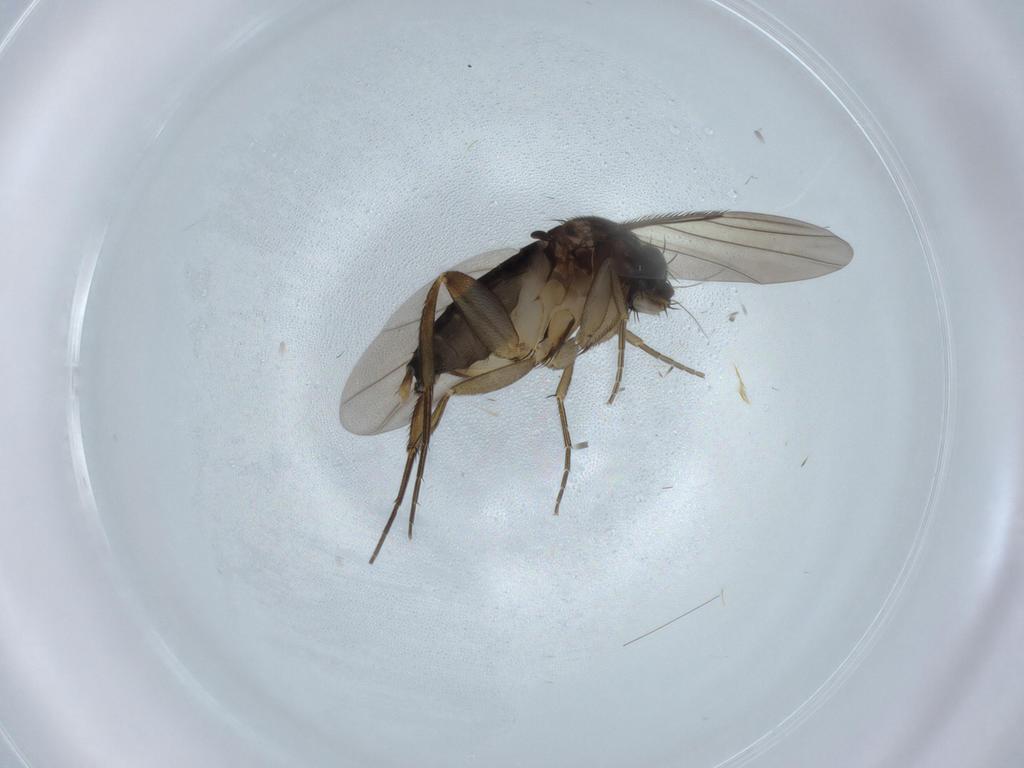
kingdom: Animalia
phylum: Arthropoda
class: Insecta
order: Diptera
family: Phoridae
